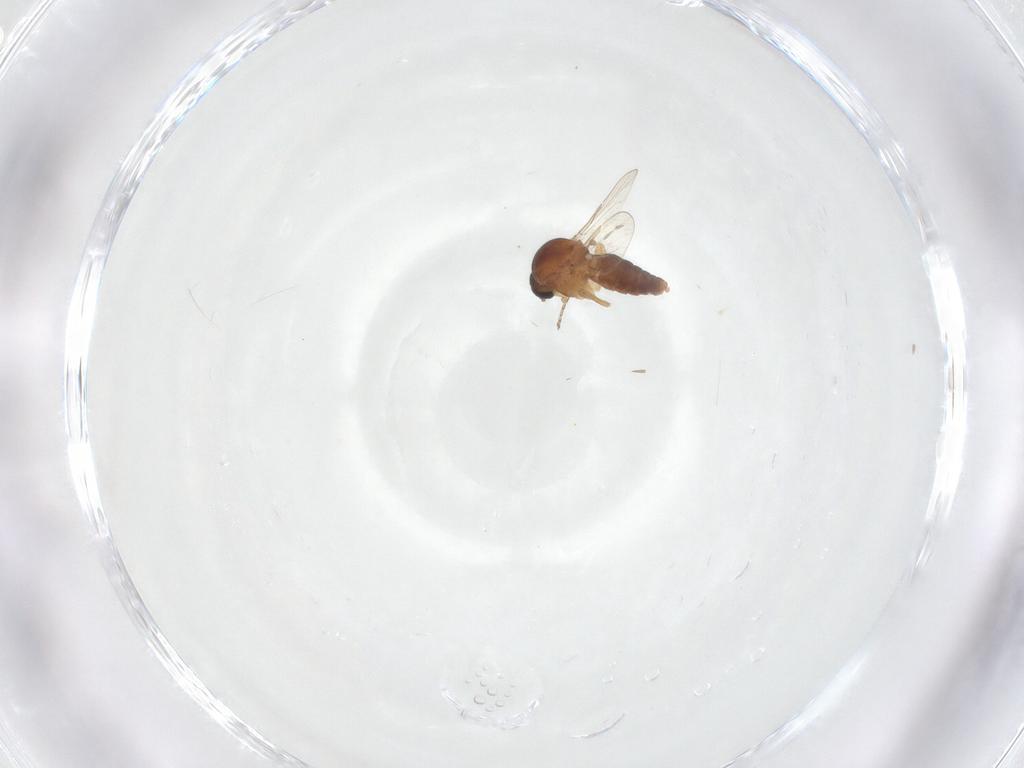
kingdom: Animalia
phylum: Arthropoda
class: Insecta
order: Diptera
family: Ceratopogonidae
